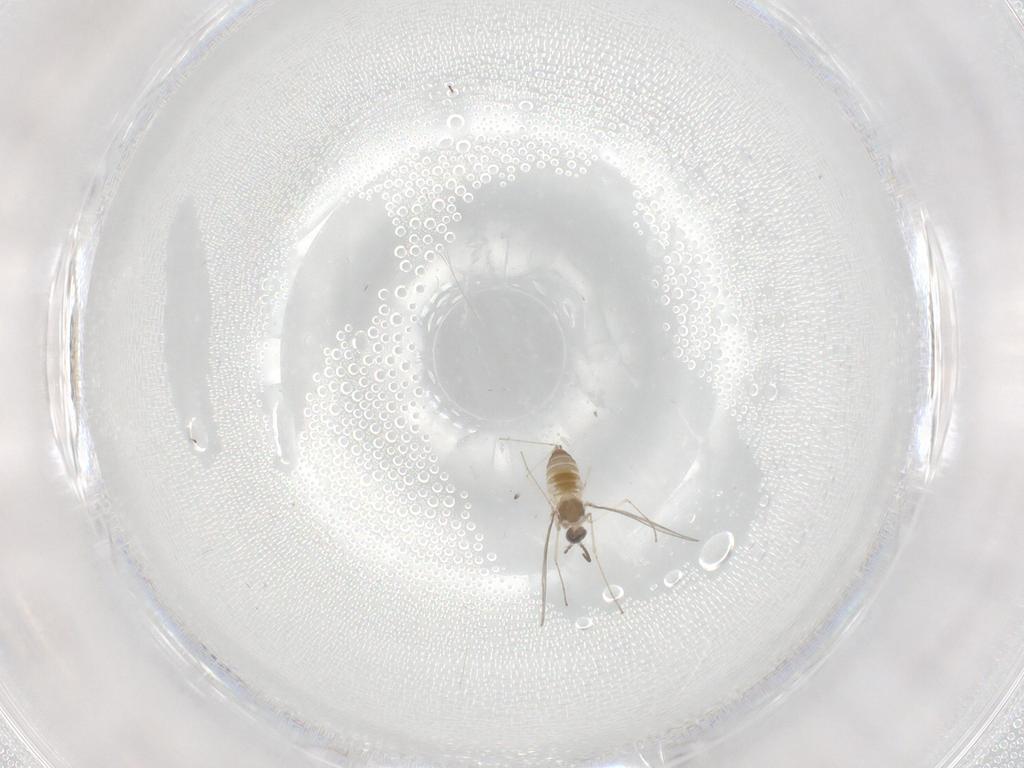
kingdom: Animalia
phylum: Arthropoda
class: Insecta
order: Diptera
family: Cecidomyiidae
